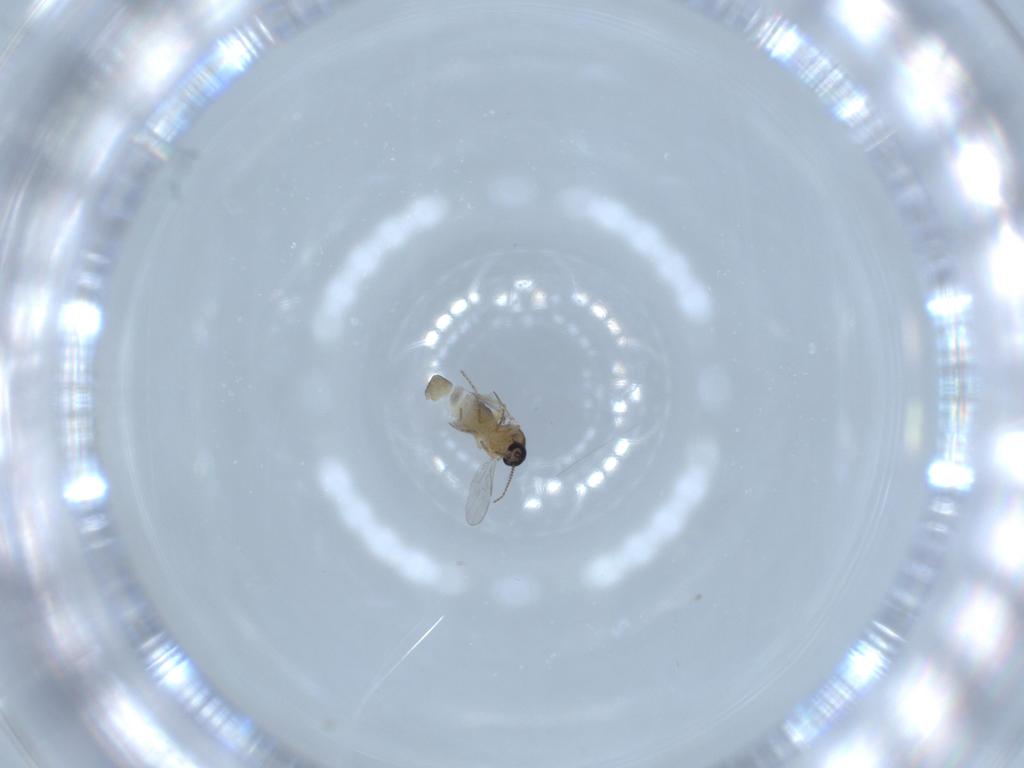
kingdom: Animalia
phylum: Arthropoda
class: Insecta
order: Diptera
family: Ceratopogonidae
